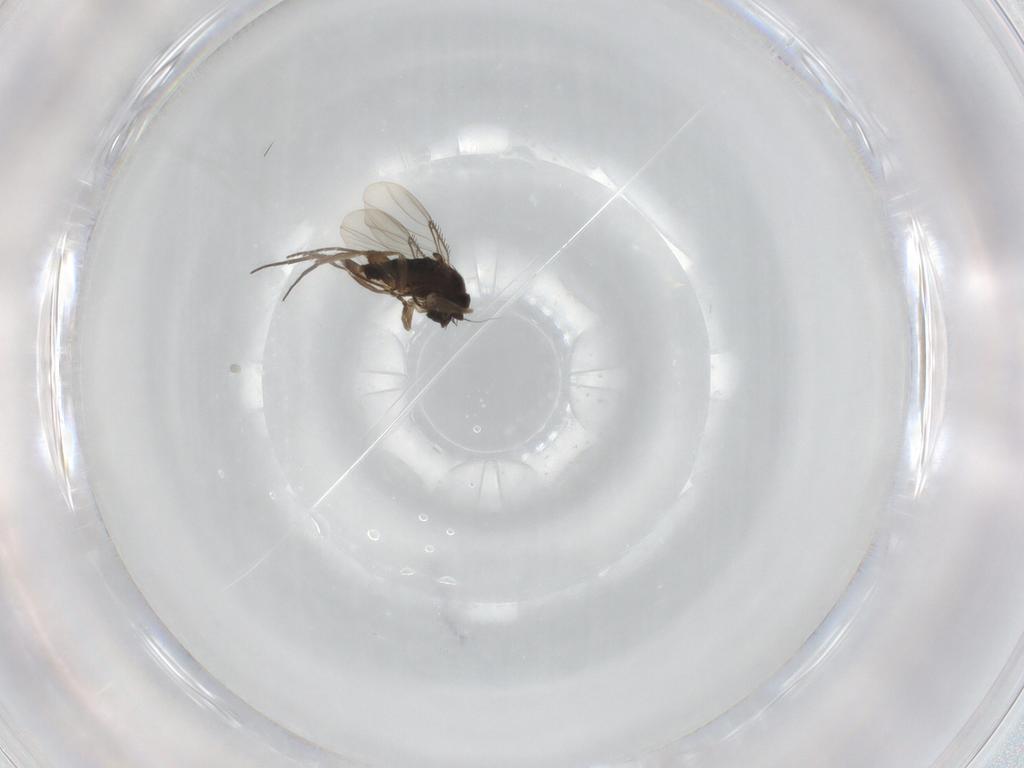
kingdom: Animalia
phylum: Arthropoda
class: Insecta
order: Diptera
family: Phoridae
